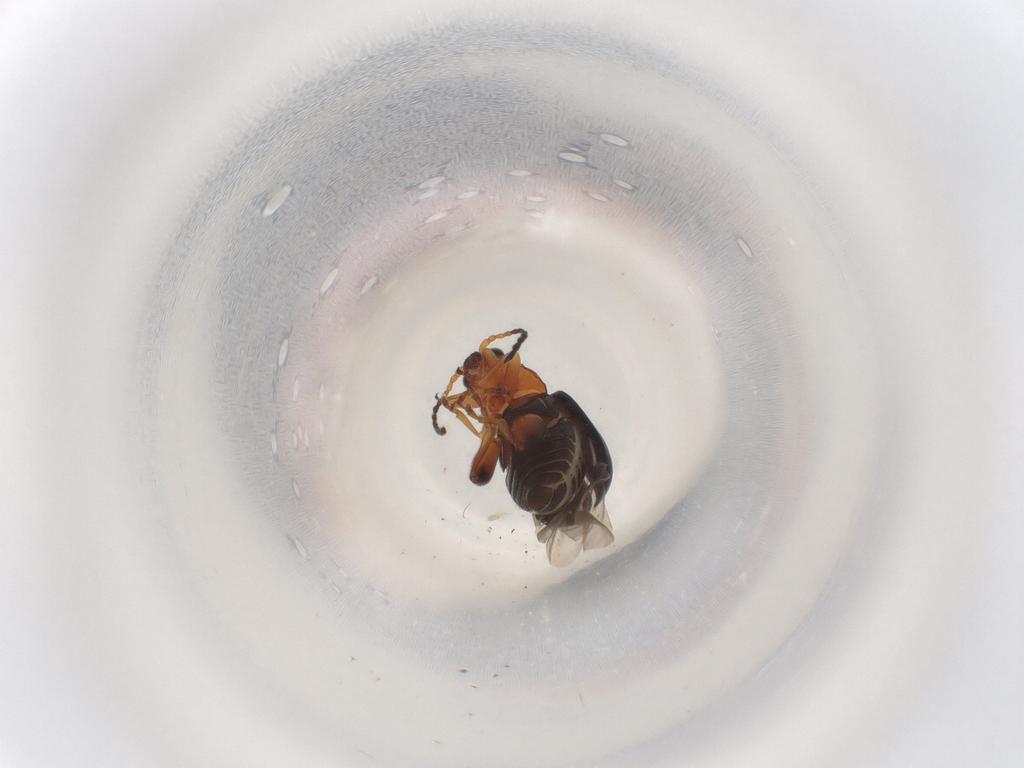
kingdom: Animalia
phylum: Arthropoda
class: Insecta
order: Coleoptera
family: Chrysomelidae
